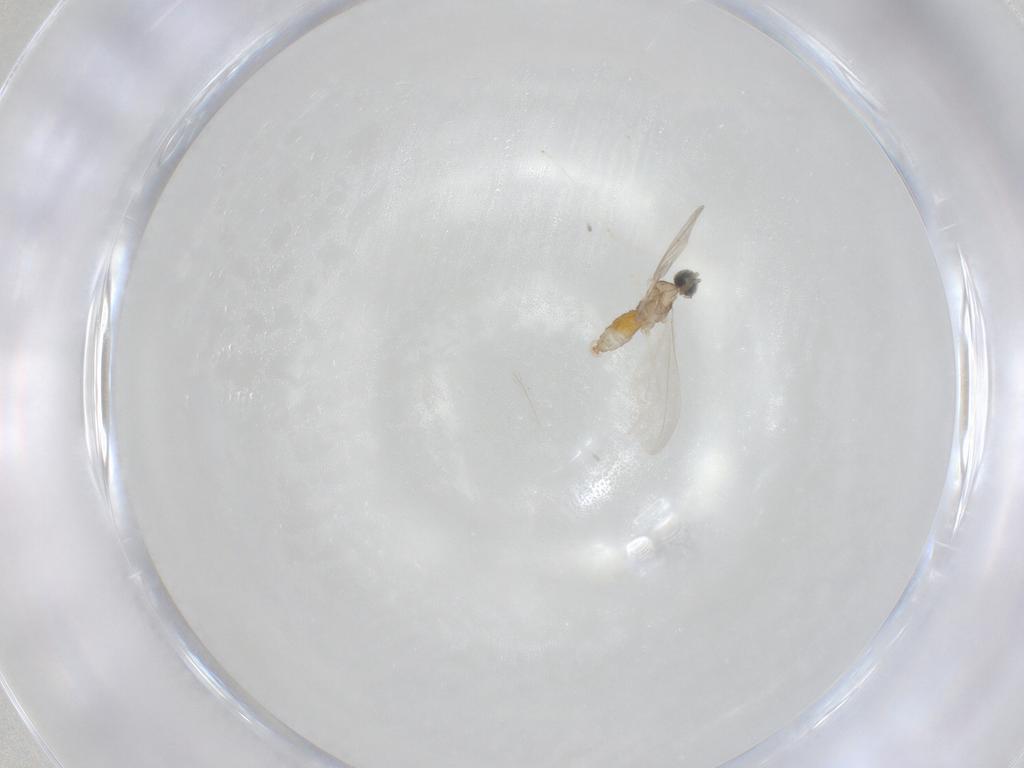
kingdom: Animalia
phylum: Arthropoda
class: Insecta
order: Diptera
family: Cecidomyiidae
